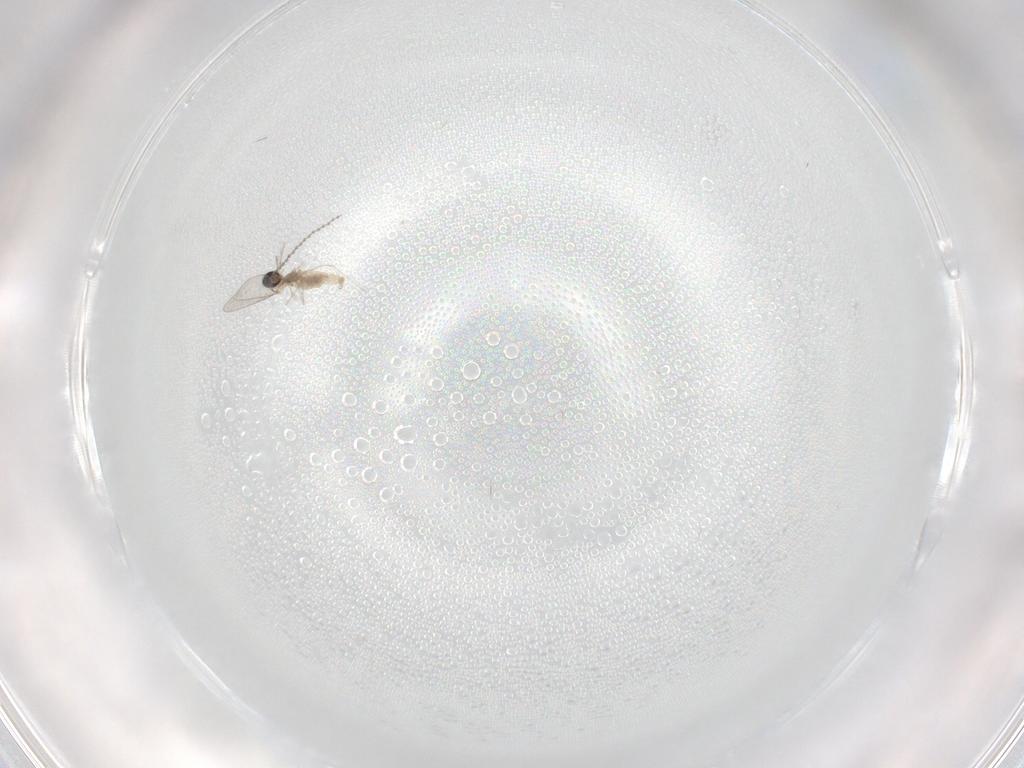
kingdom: Animalia
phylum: Arthropoda
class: Insecta
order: Diptera
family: Cecidomyiidae
